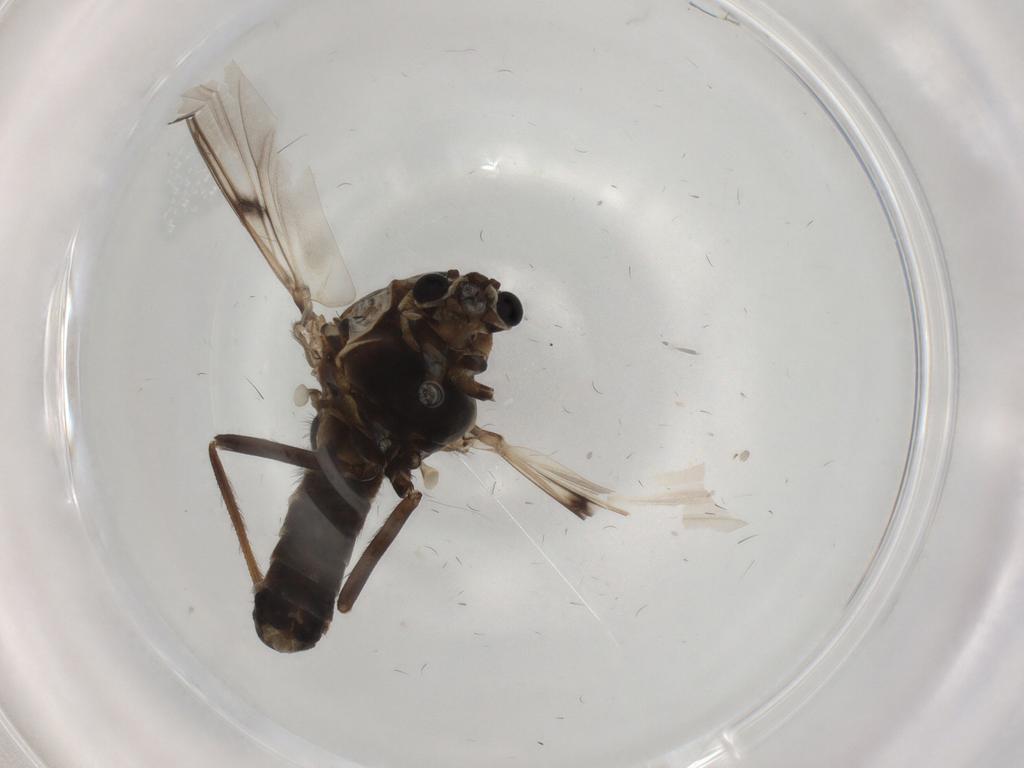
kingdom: Animalia
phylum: Arthropoda
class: Insecta
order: Diptera
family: Chironomidae
